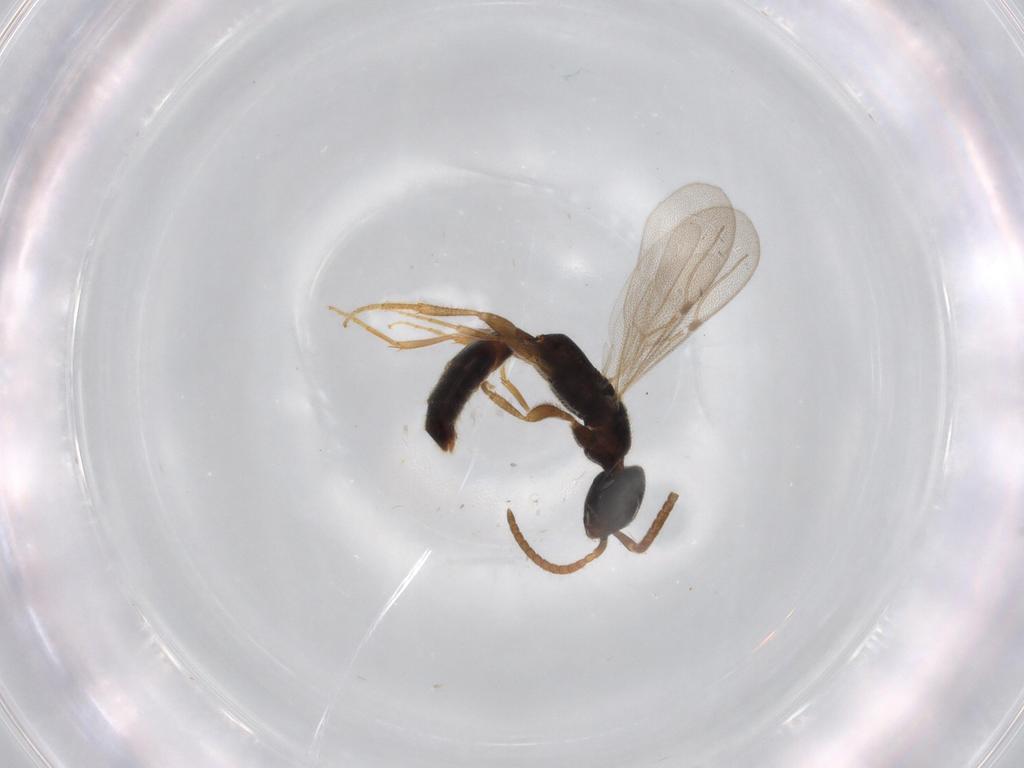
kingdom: Animalia
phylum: Arthropoda
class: Insecta
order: Hymenoptera
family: Bethylidae
